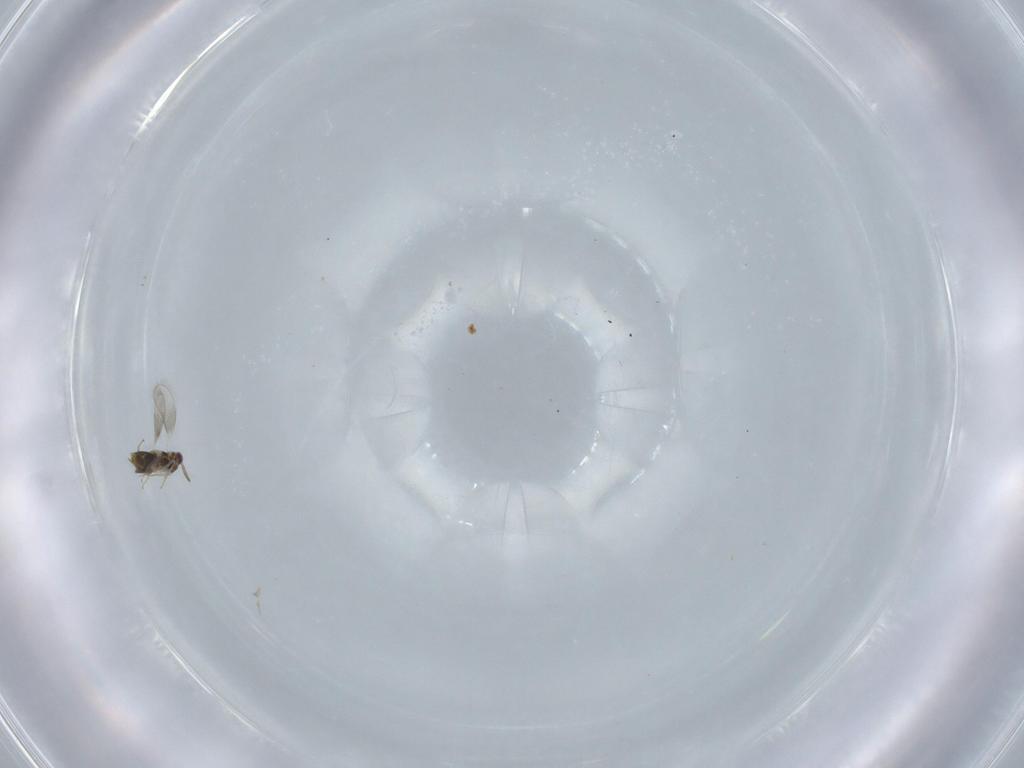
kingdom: Animalia
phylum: Arthropoda
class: Insecta
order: Hymenoptera
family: Aphelinidae
